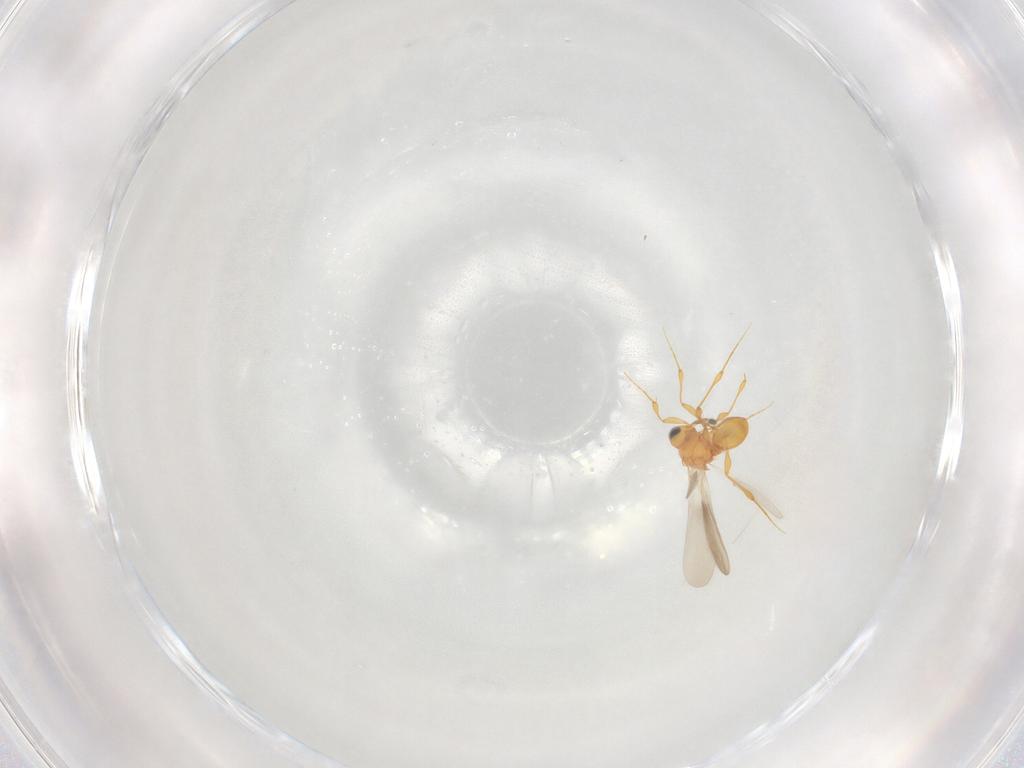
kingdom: Animalia
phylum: Arthropoda
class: Insecta
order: Hymenoptera
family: Platygastridae
